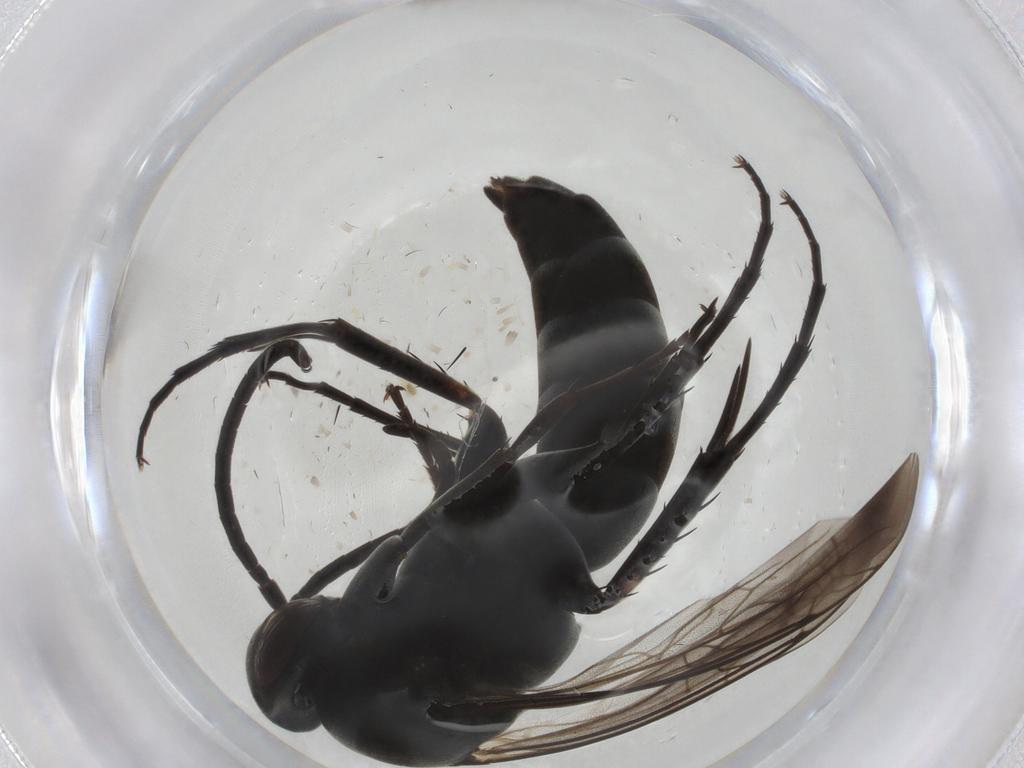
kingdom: Animalia
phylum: Arthropoda
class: Insecta
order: Hymenoptera
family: Pompilidae
